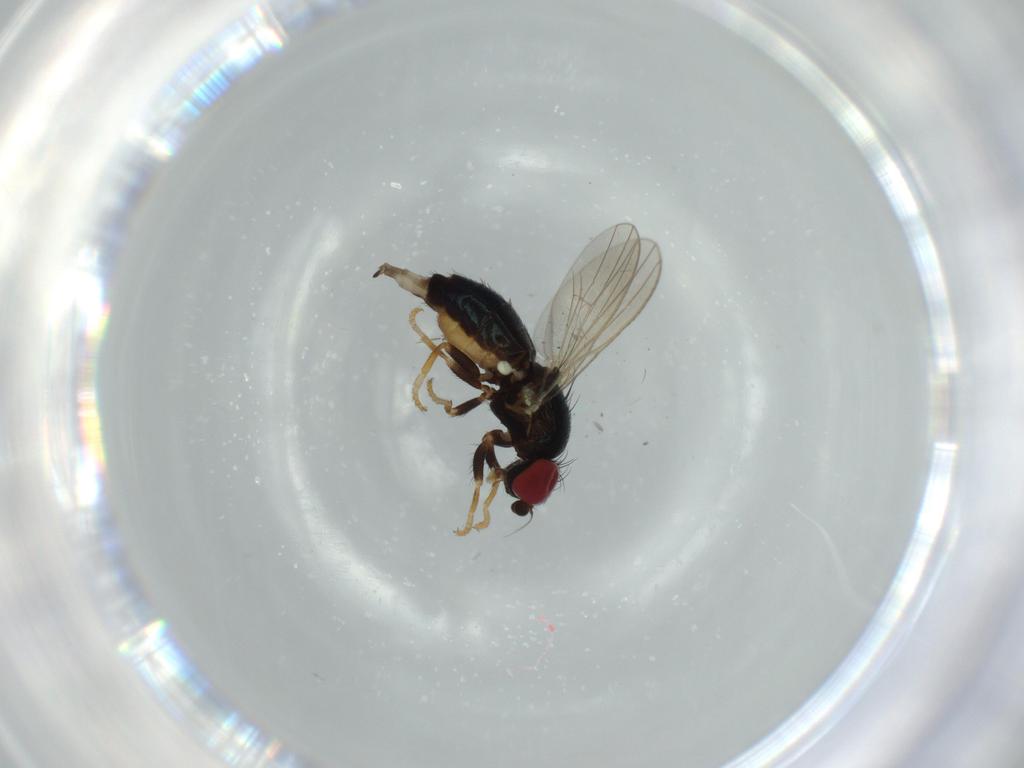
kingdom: Animalia
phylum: Arthropoda
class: Insecta
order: Diptera
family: Chamaemyiidae
